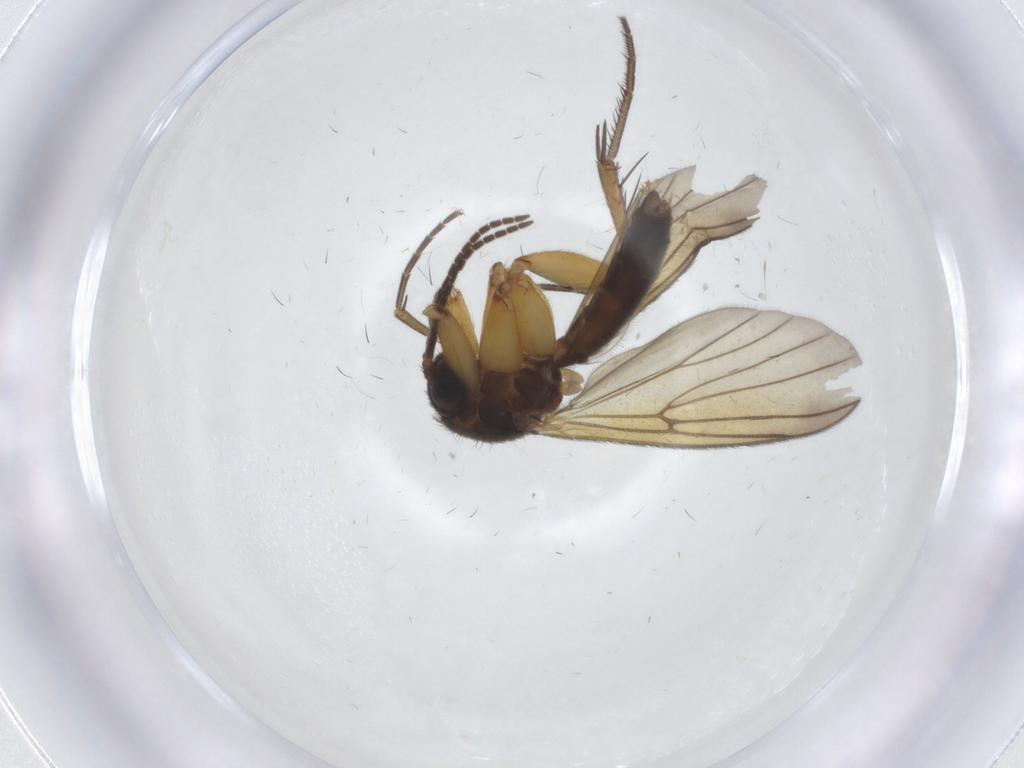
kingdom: Animalia
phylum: Arthropoda
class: Insecta
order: Diptera
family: Mycetophilidae
